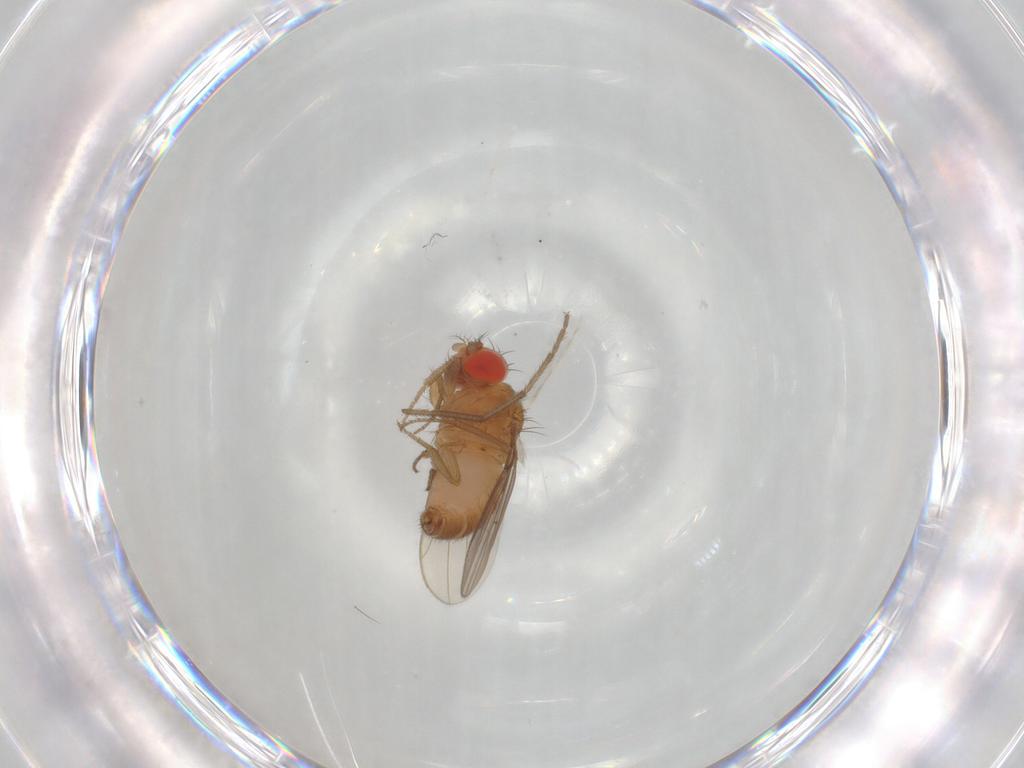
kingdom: Animalia
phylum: Arthropoda
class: Insecta
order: Diptera
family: Drosophilidae
